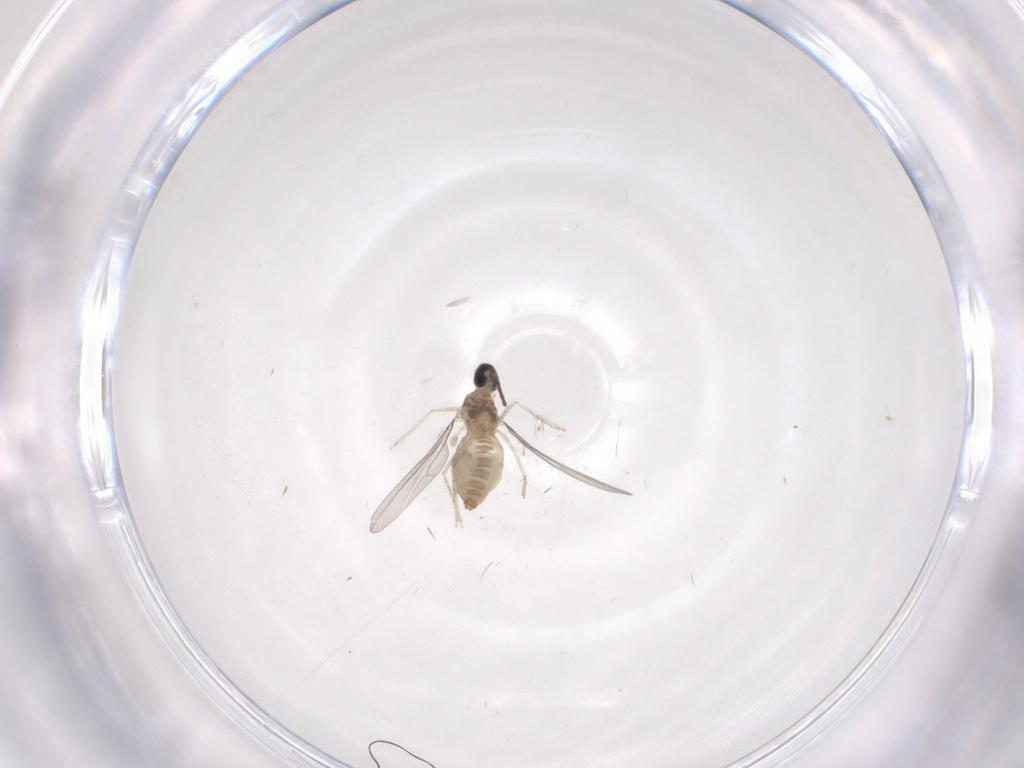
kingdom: Animalia
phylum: Arthropoda
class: Insecta
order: Diptera
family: Cecidomyiidae
